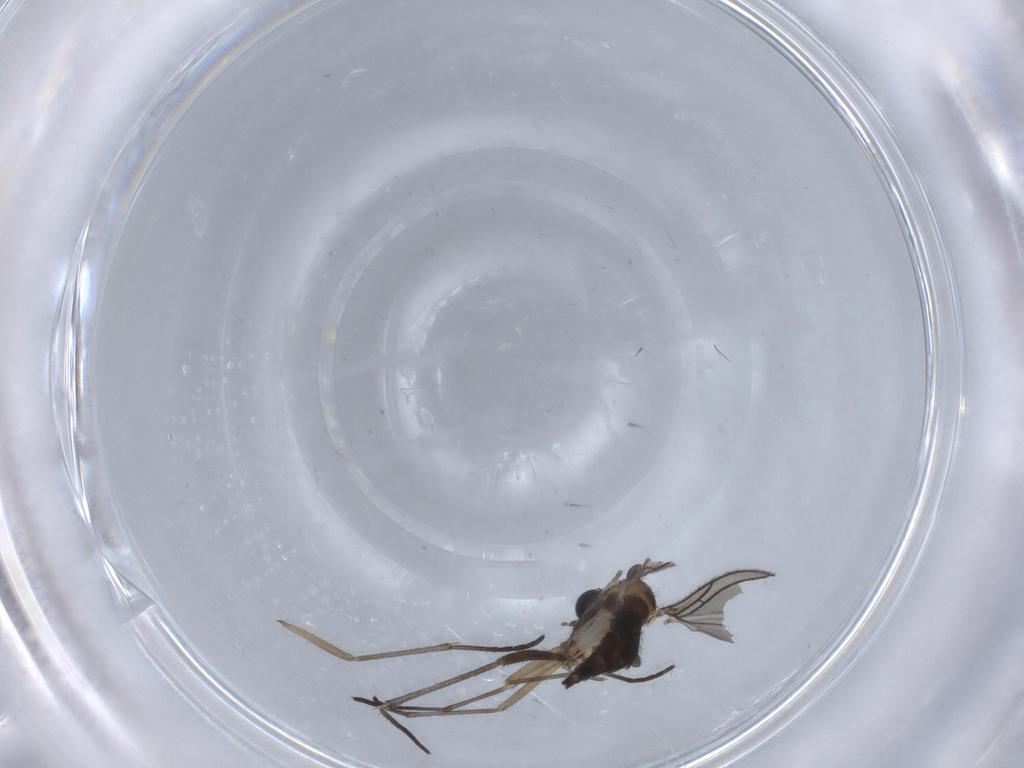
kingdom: Animalia
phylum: Arthropoda
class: Insecta
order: Diptera
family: Sciaridae
